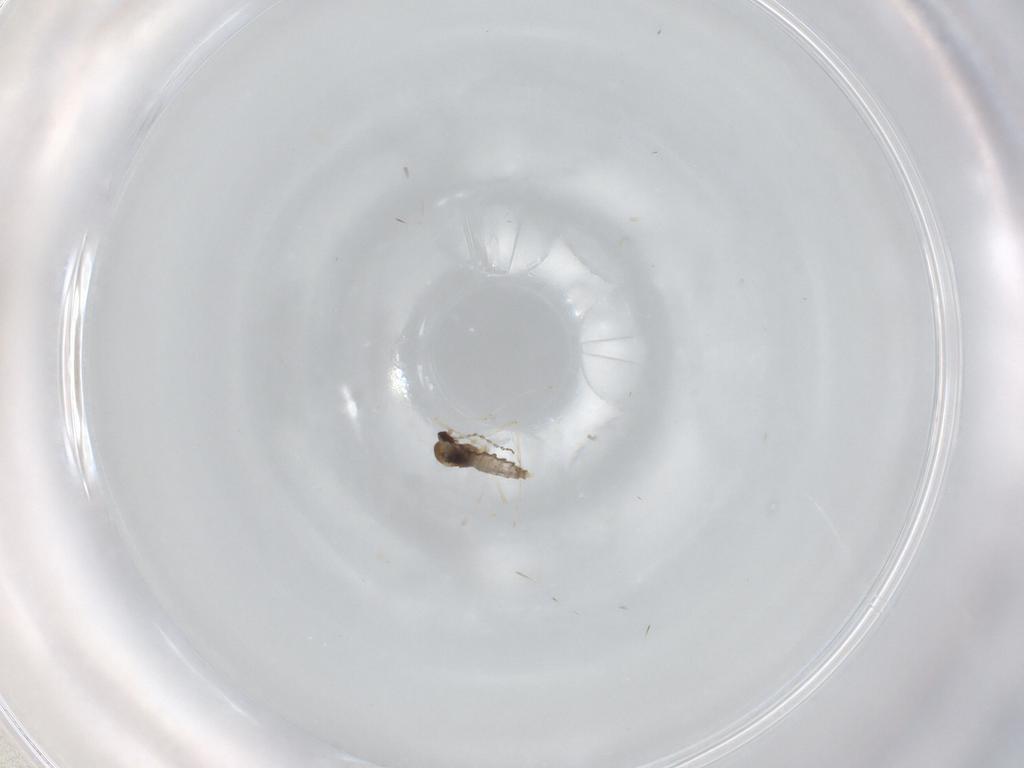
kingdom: Animalia
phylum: Arthropoda
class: Insecta
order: Diptera
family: Cecidomyiidae
